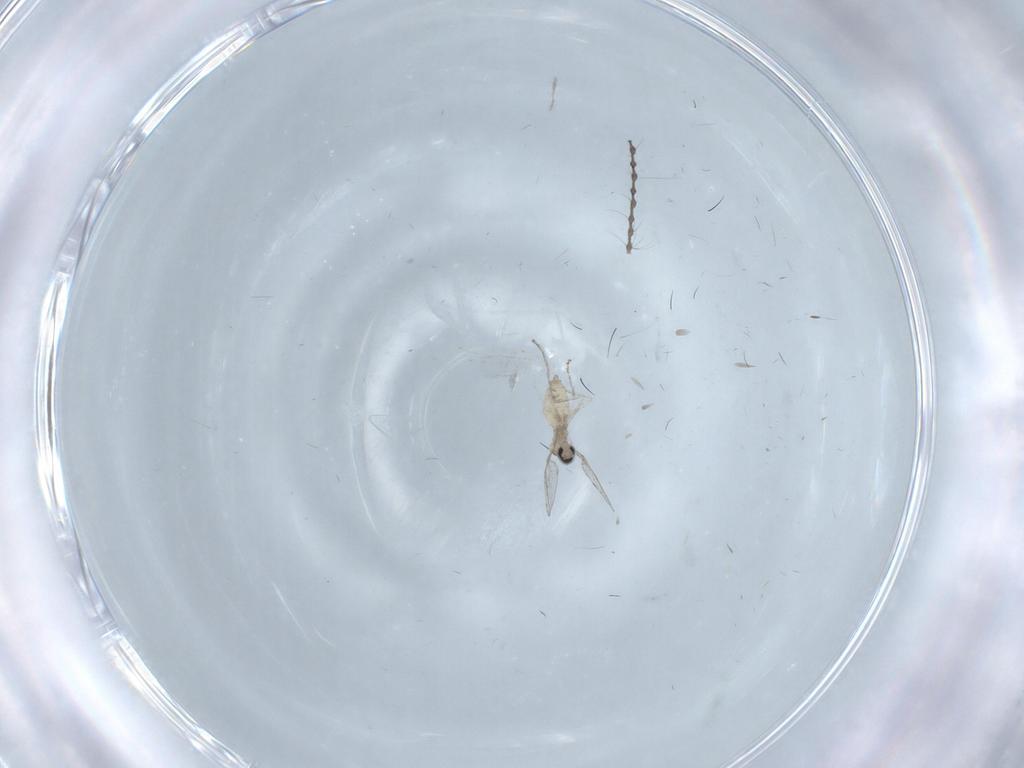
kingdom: Animalia
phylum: Arthropoda
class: Insecta
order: Diptera
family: Cecidomyiidae
